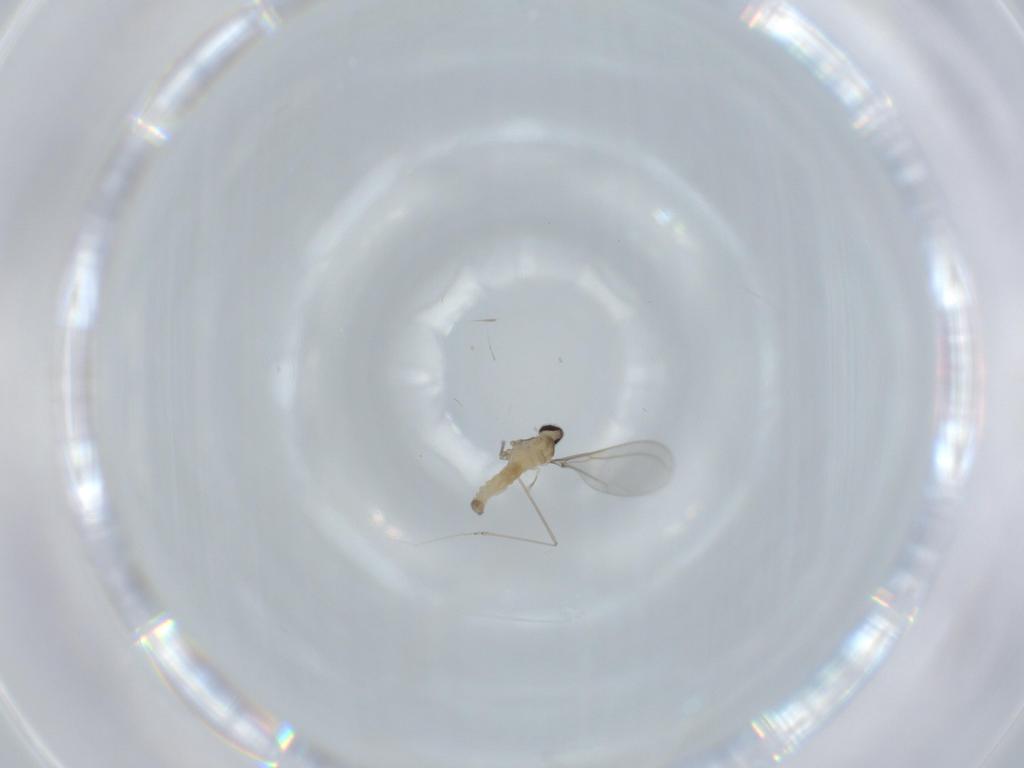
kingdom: Animalia
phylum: Arthropoda
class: Insecta
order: Diptera
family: Cecidomyiidae
